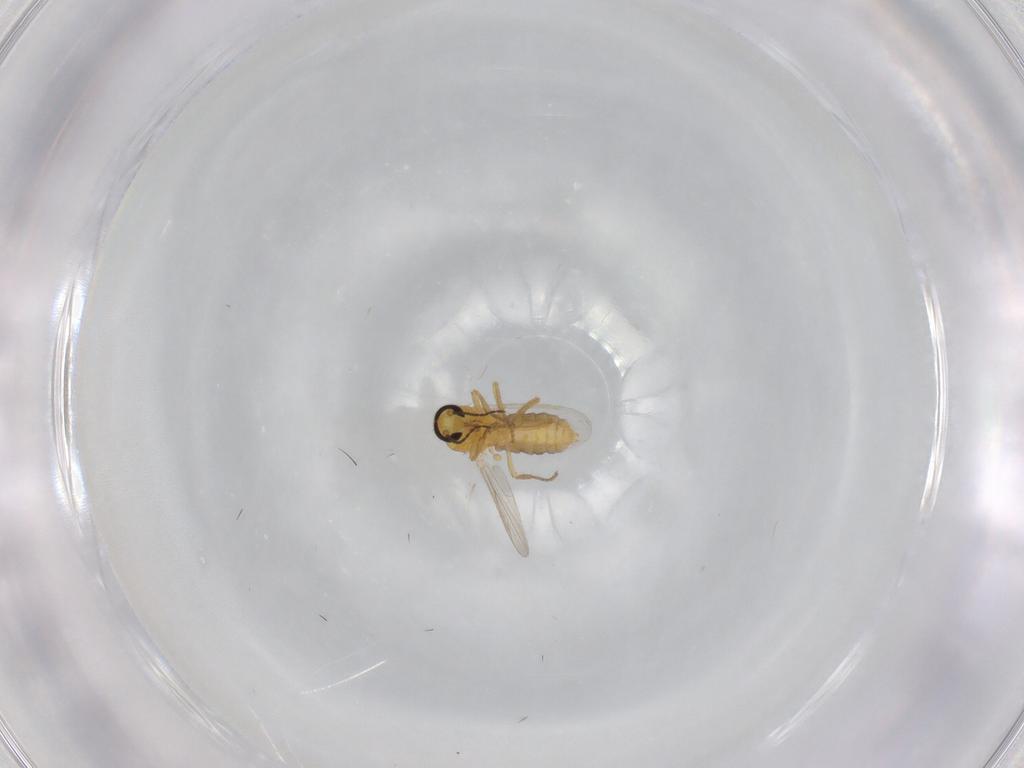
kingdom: Animalia
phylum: Arthropoda
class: Insecta
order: Diptera
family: Ceratopogonidae
